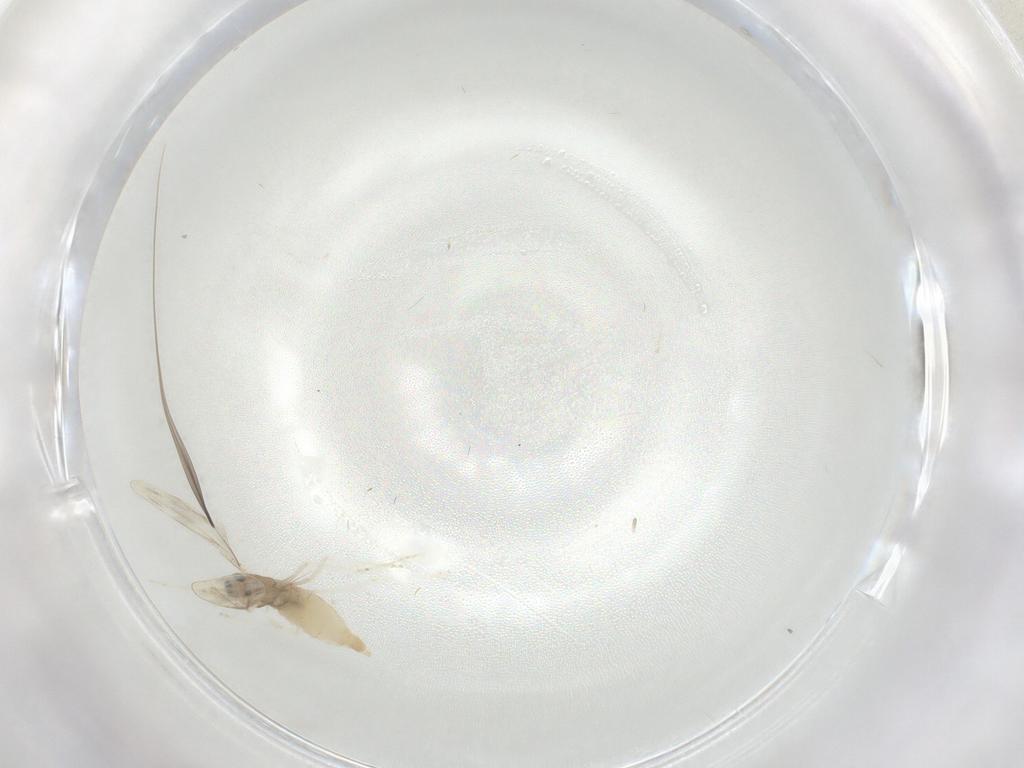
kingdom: Animalia
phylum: Arthropoda
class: Insecta
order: Diptera
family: Cecidomyiidae
